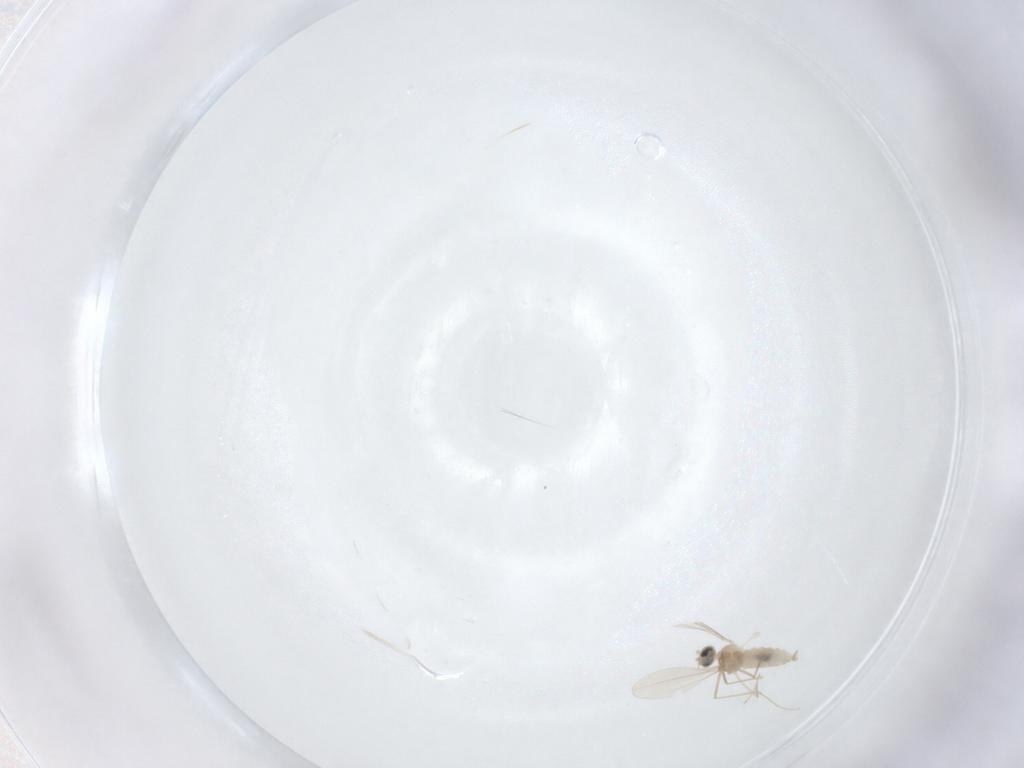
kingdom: Animalia
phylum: Arthropoda
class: Insecta
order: Diptera
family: Cecidomyiidae
